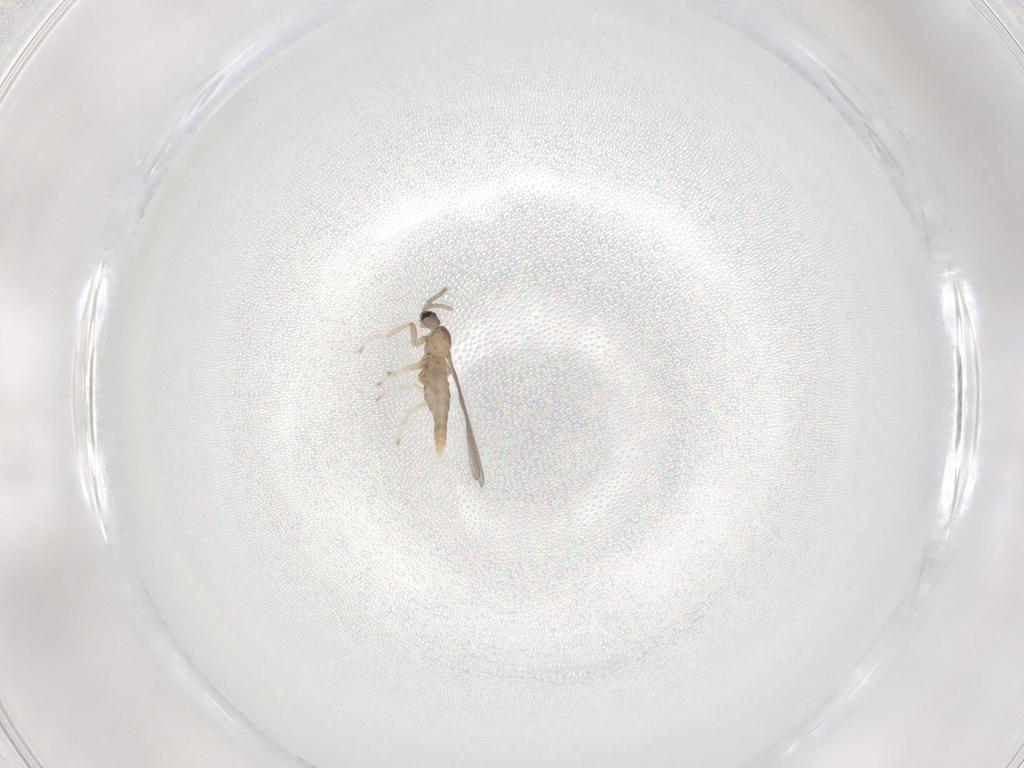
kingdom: Animalia
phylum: Arthropoda
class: Insecta
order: Diptera
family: Cecidomyiidae
